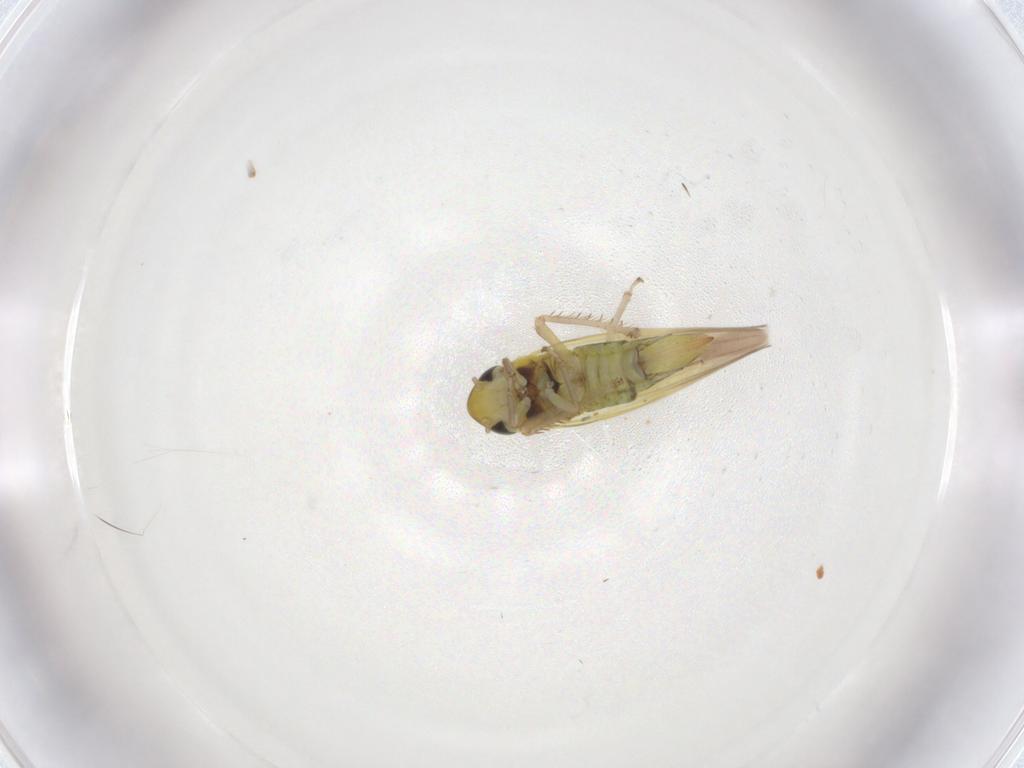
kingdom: Animalia
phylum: Arthropoda
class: Insecta
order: Hemiptera
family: Cicadellidae
